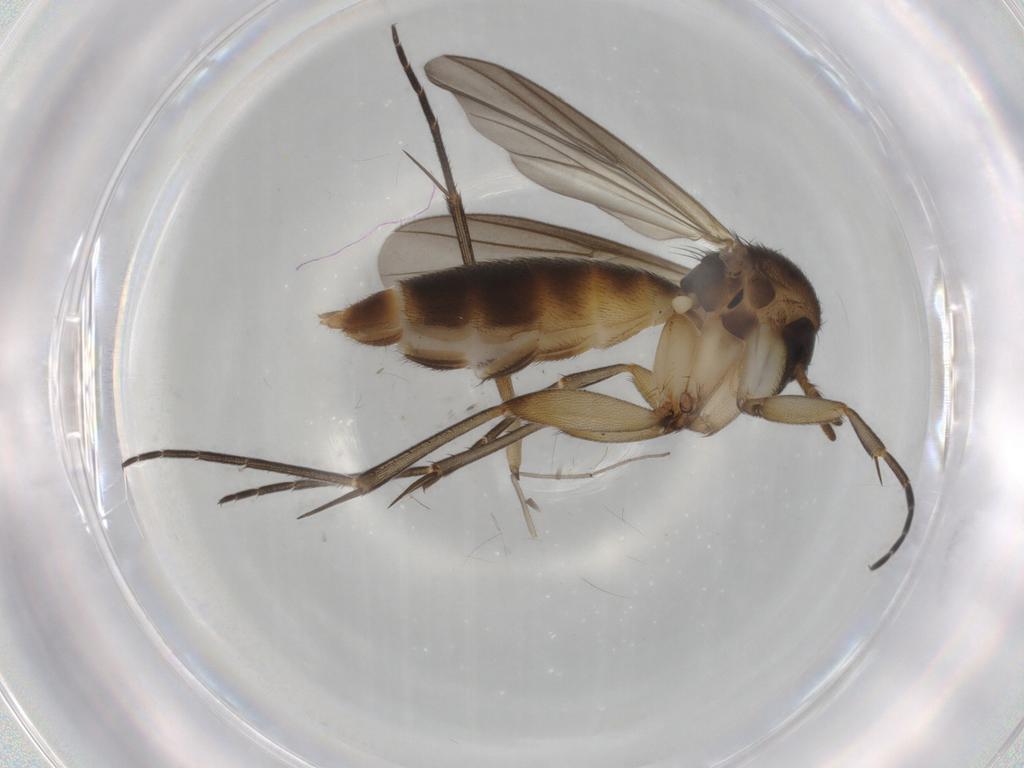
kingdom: Animalia
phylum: Arthropoda
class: Insecta
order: Diptera
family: Mycetophilidae
